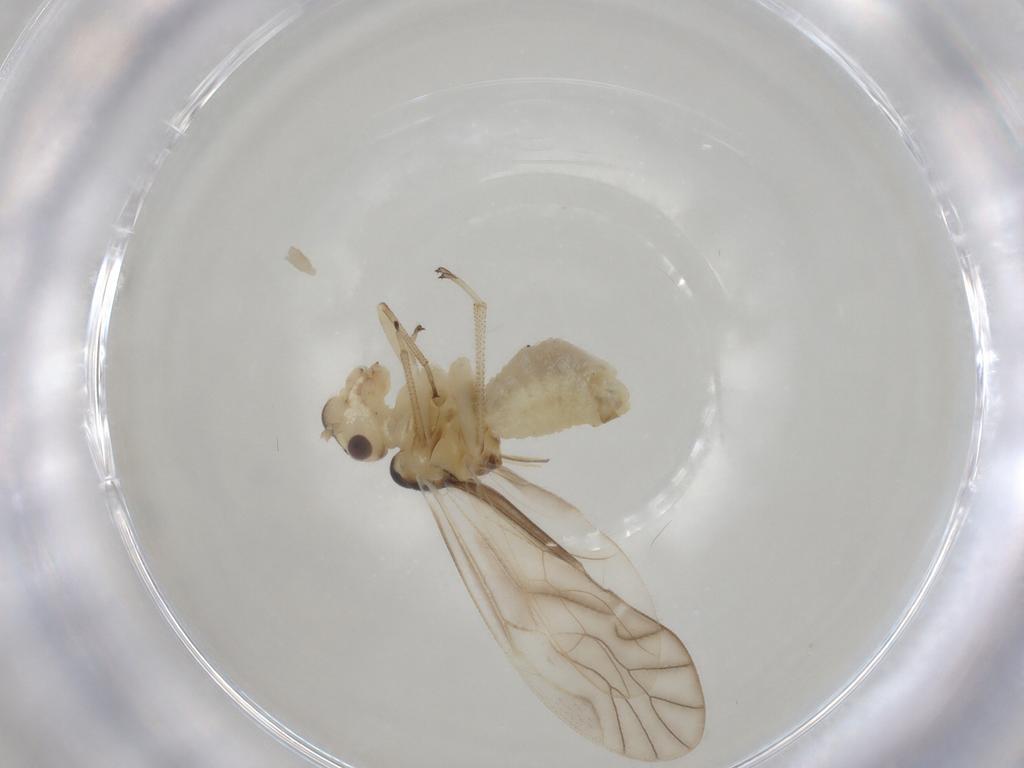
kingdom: Animalia
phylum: Arthropoda
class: Insecta
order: Psocodea
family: Caeciliusidae
